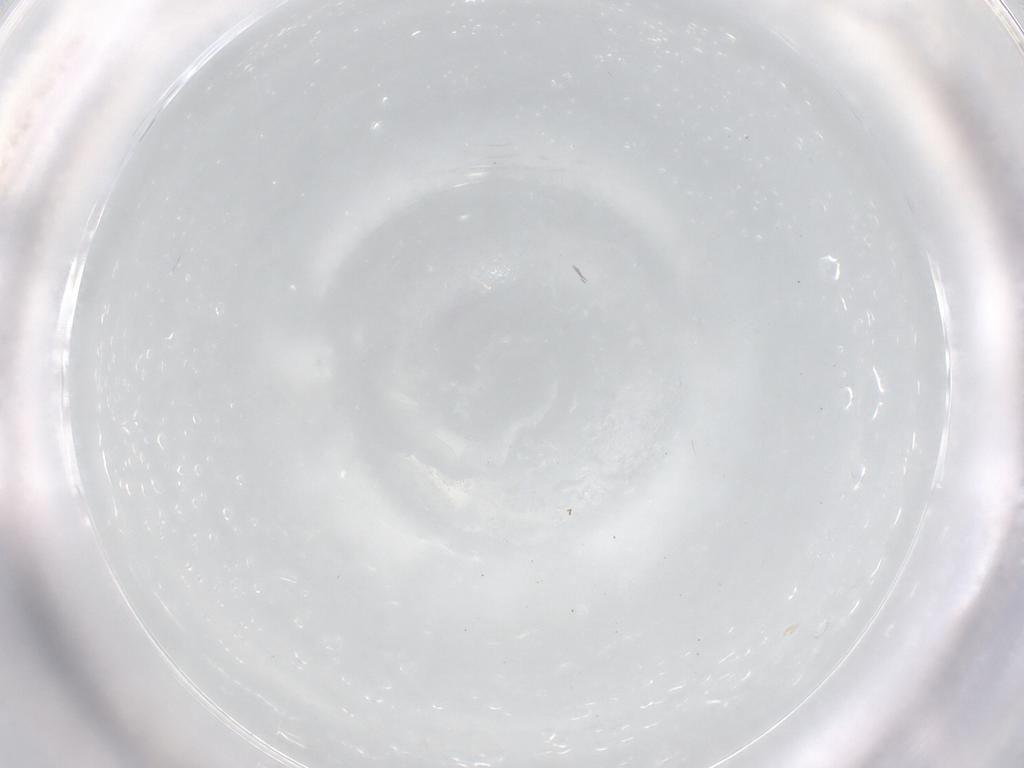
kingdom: Animalia
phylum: Arthropoda
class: Insecta
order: Hymenoptera
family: Trichogrammatidae
